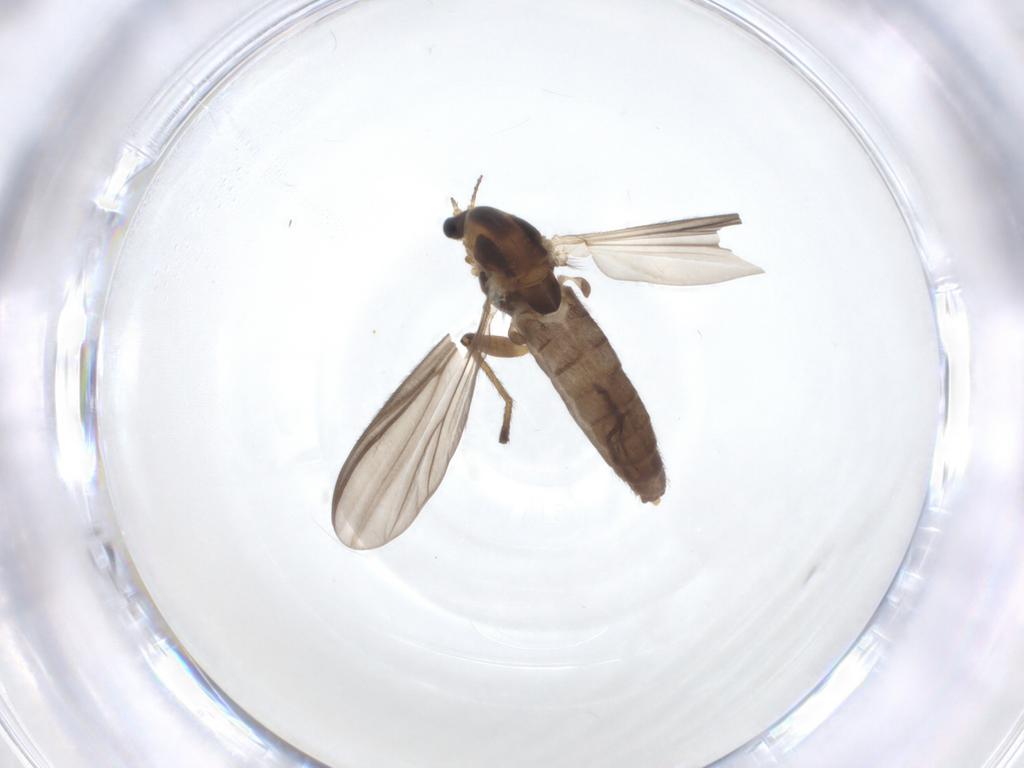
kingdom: Animalia
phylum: Arthropoda
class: Insecta
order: Diptera
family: Chironomidae
